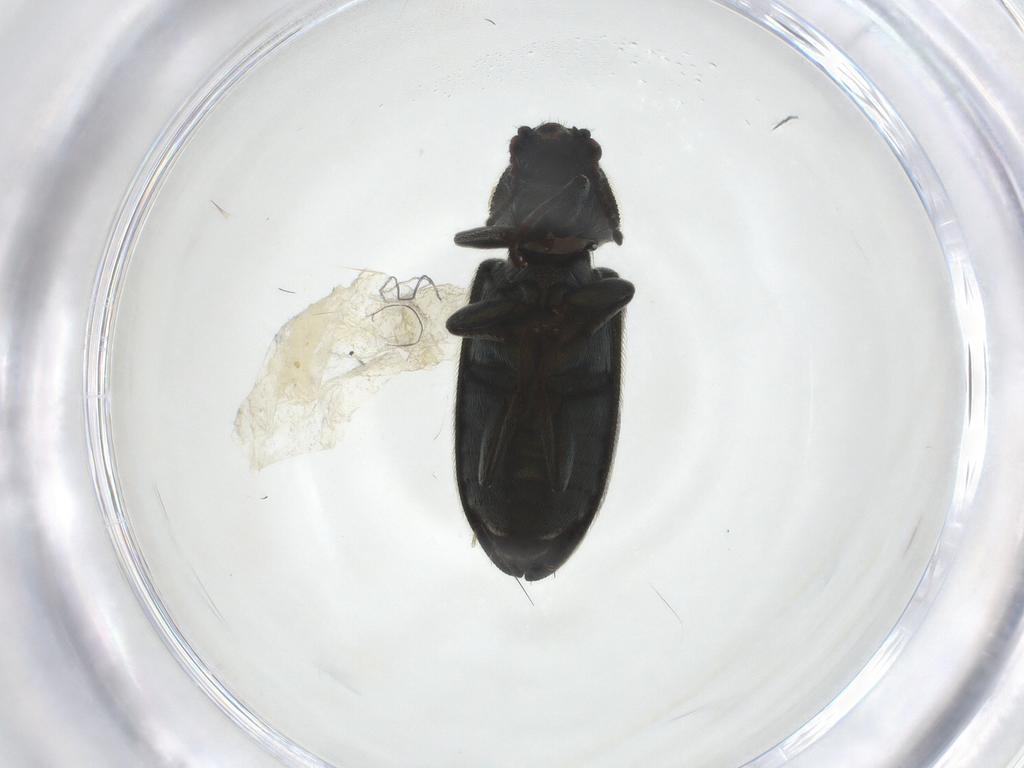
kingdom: Animalia
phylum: Arthropoda
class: Insecta
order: Coleoptera
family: Melyridae
